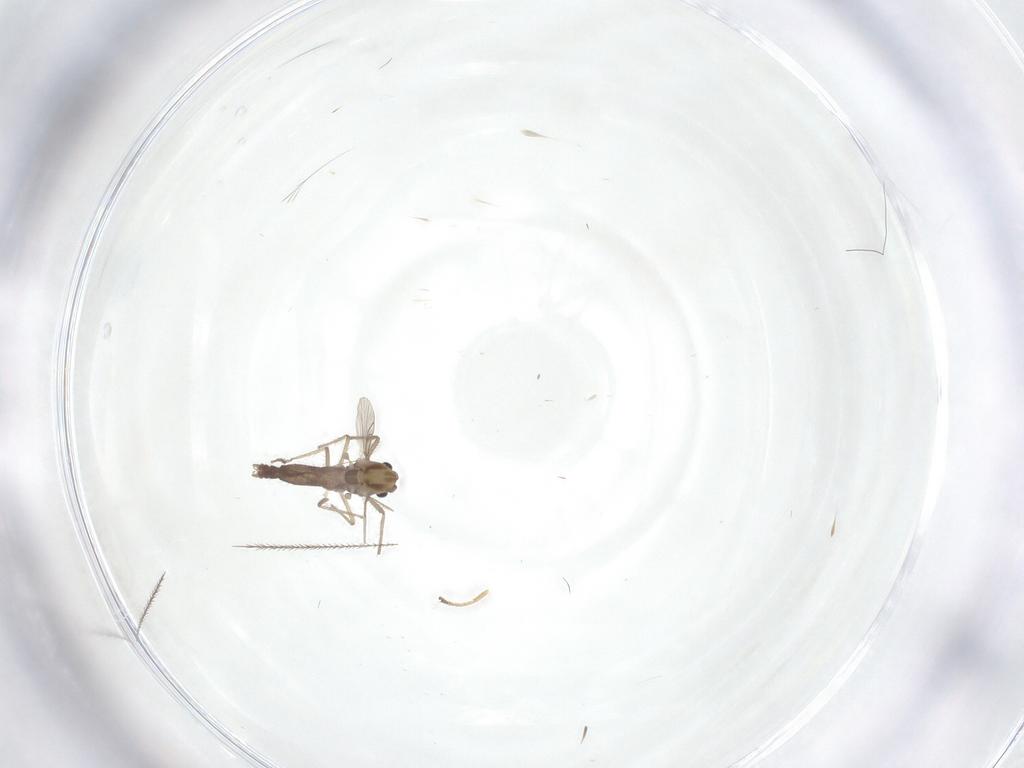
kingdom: Animalia
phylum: Arthropoda
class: Insecta
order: Diptera
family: Chironomidae
